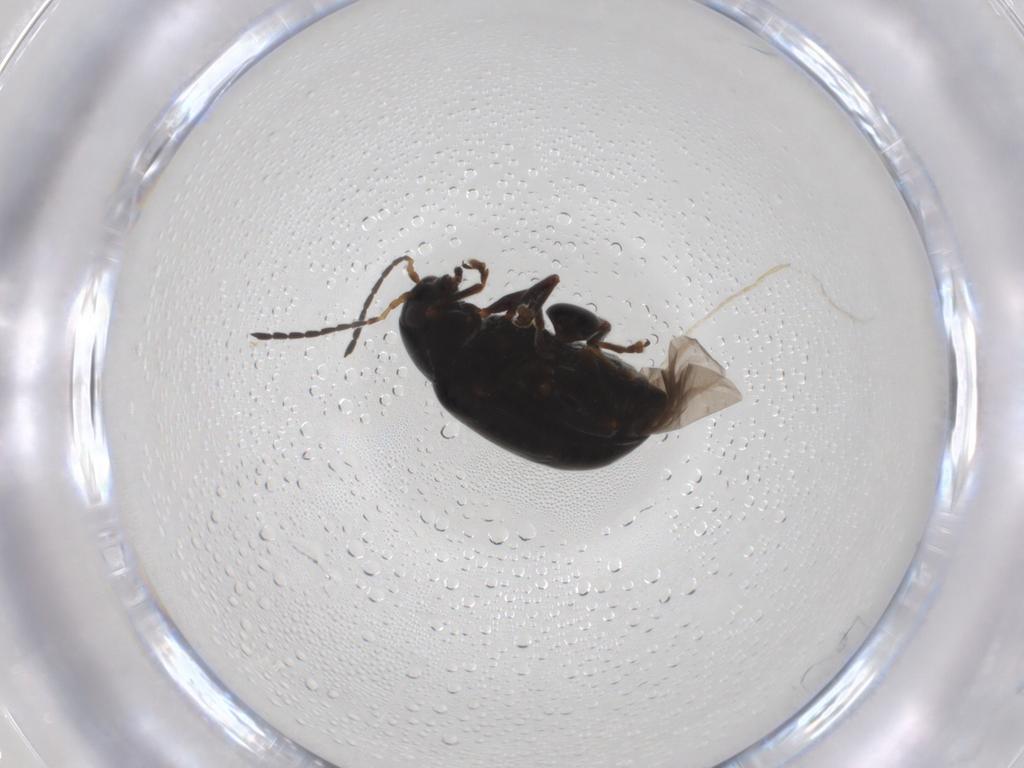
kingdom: Animalia
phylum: Arthropoda
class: Insecta
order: Coleoptera
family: Chrysomelidae
